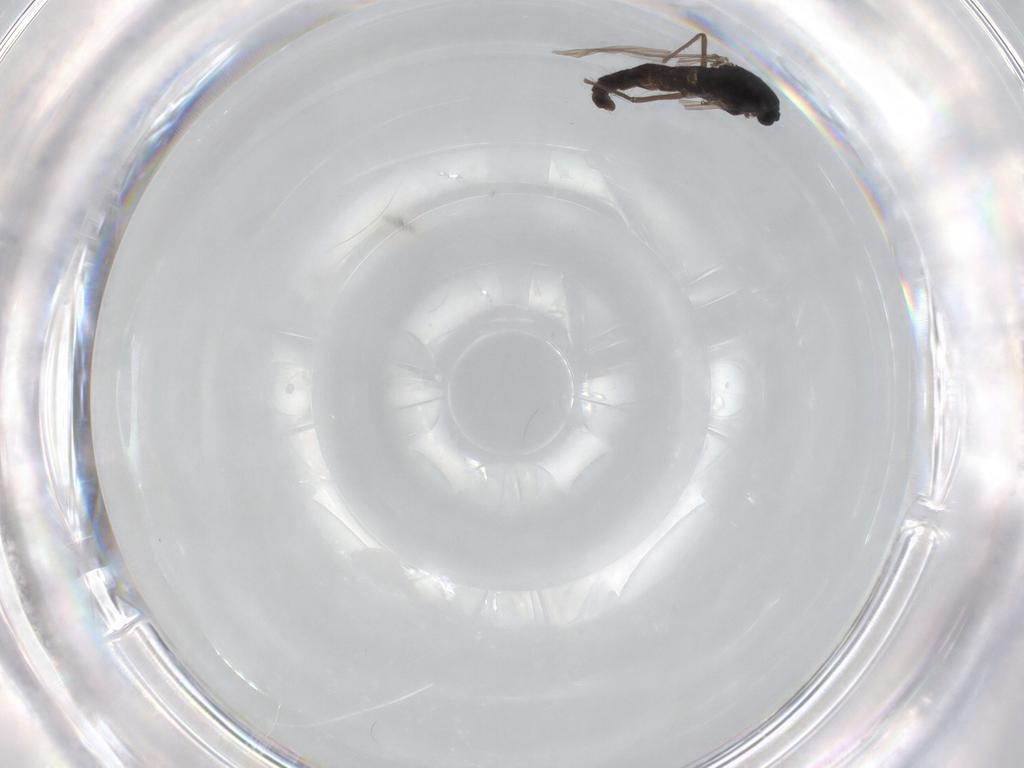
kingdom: Animalia
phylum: Arthropoda
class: Insecta
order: Diptera
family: Chironomidae
